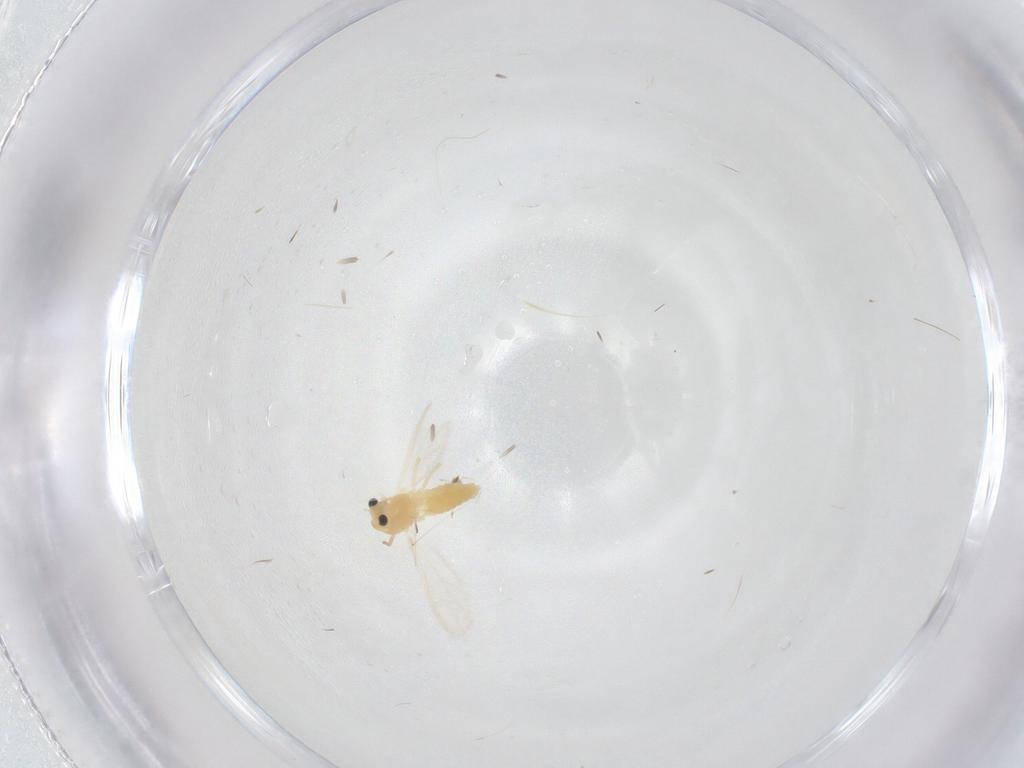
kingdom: Animalia
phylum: Arthropoda
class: Insecta
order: Diptera
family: Chironomidae
